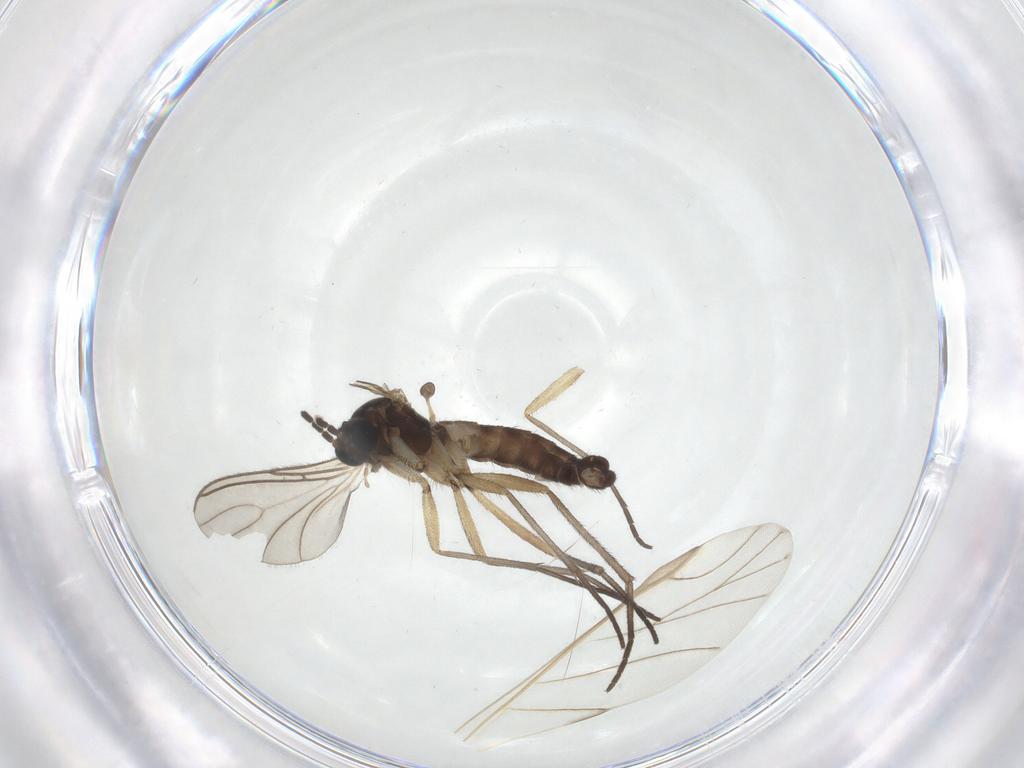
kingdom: Animalia
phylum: Arthropoda
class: Insecta
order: Diptera
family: Sciaridae
